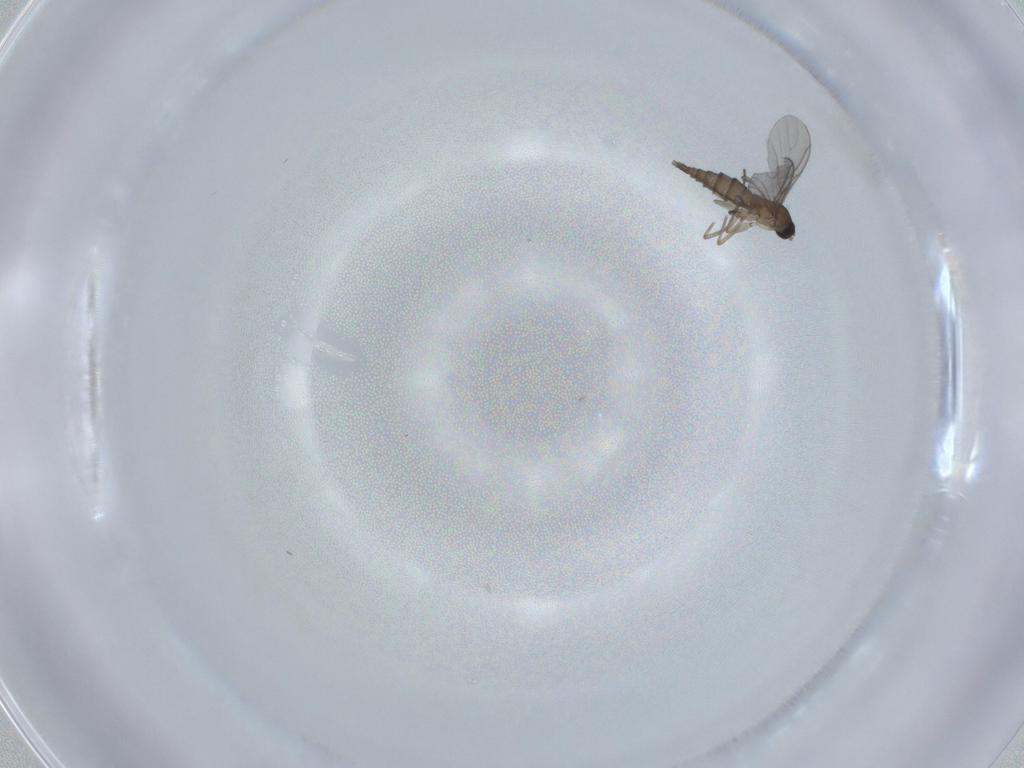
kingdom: Animalia
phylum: Arthropoda
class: Insecta
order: Diptera
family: Sciaridae
